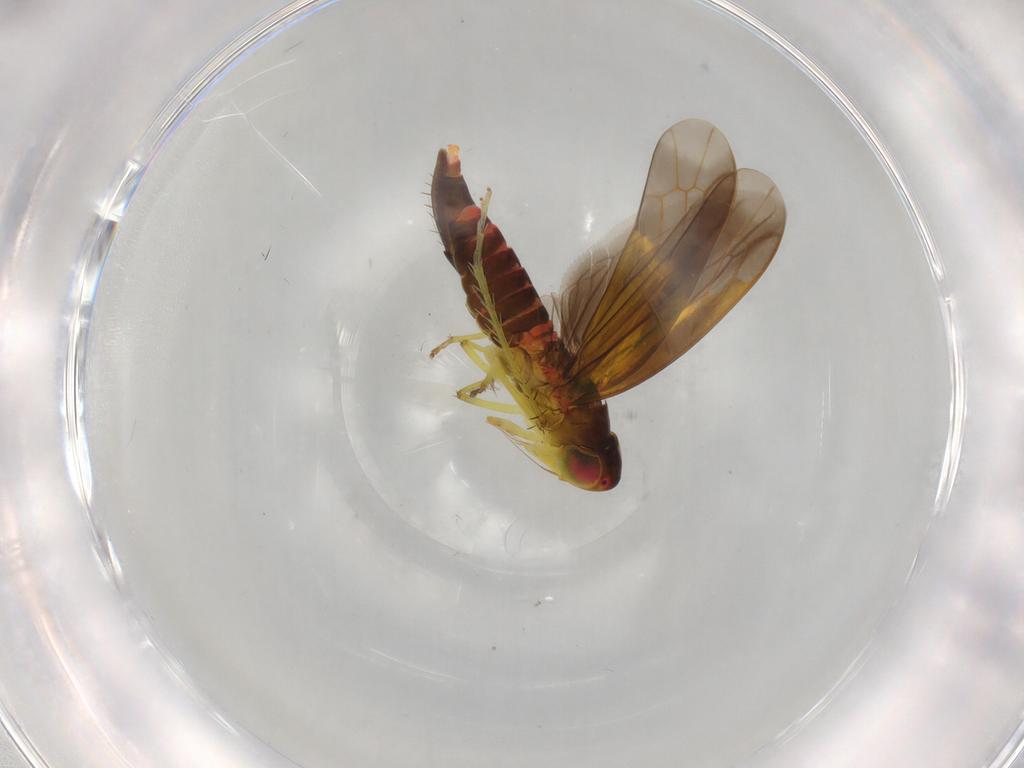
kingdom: Animalia
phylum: Arthropoda
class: Insecta
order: Hemiptera
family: Cicadellidae
